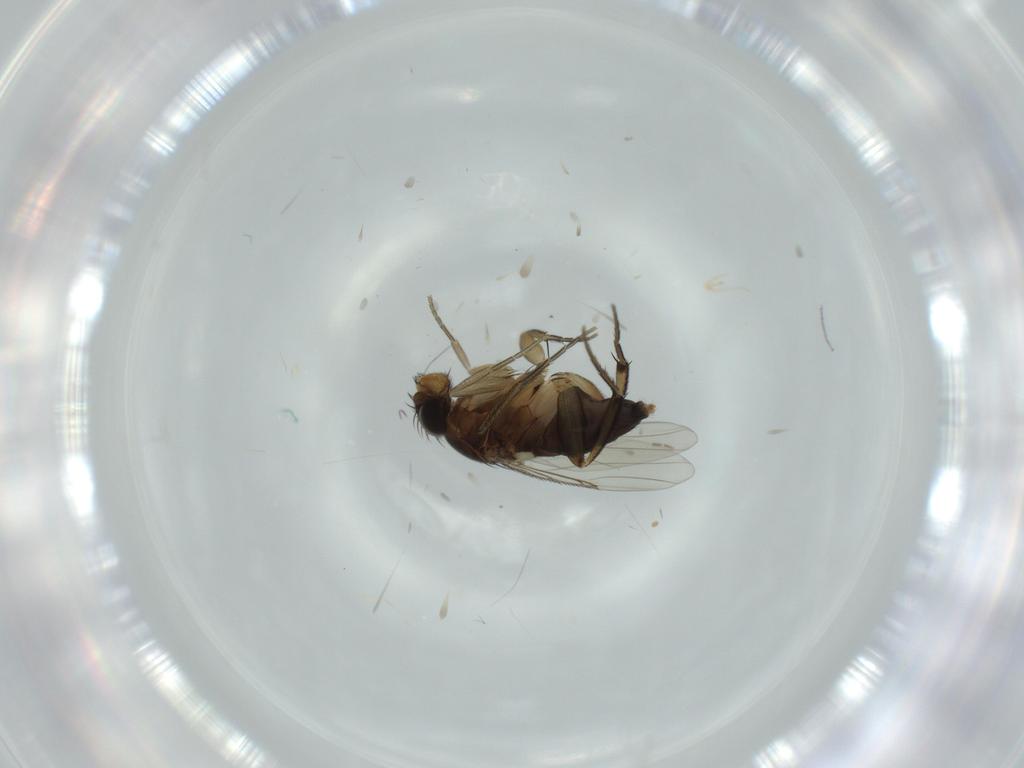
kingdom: Animalia
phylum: Arthropoda
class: Insecta
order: Diptera
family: Phoridae
